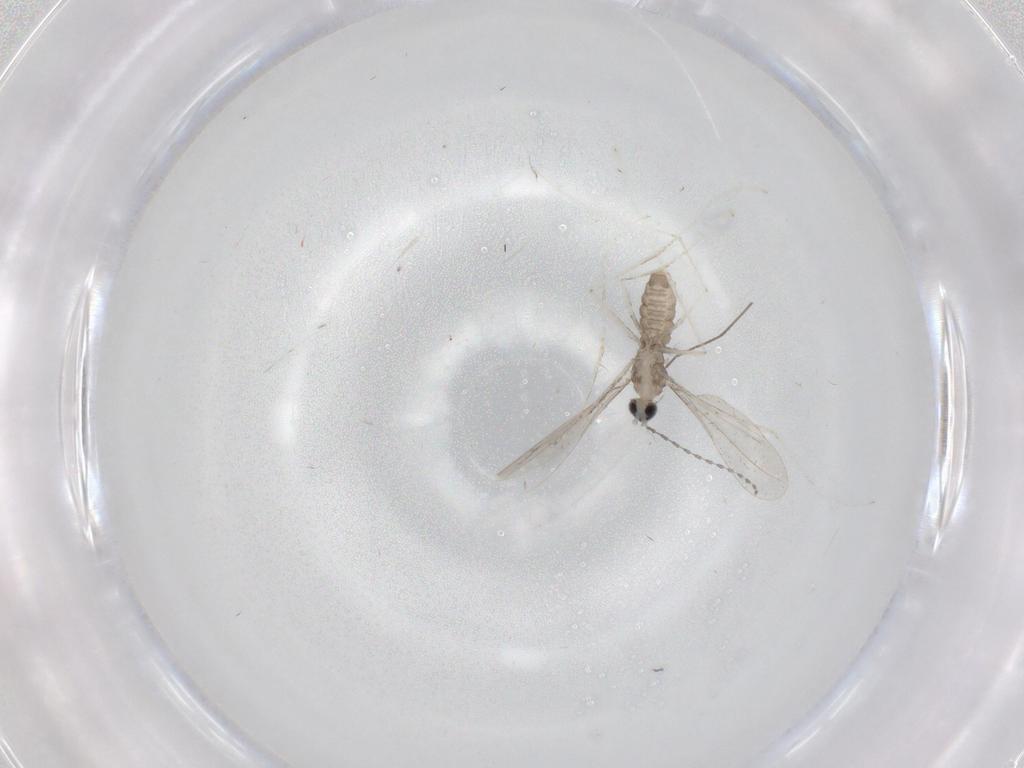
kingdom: Animalia
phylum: Arthropoda
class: Insecta
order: Diptera
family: Cecidomyiidae
